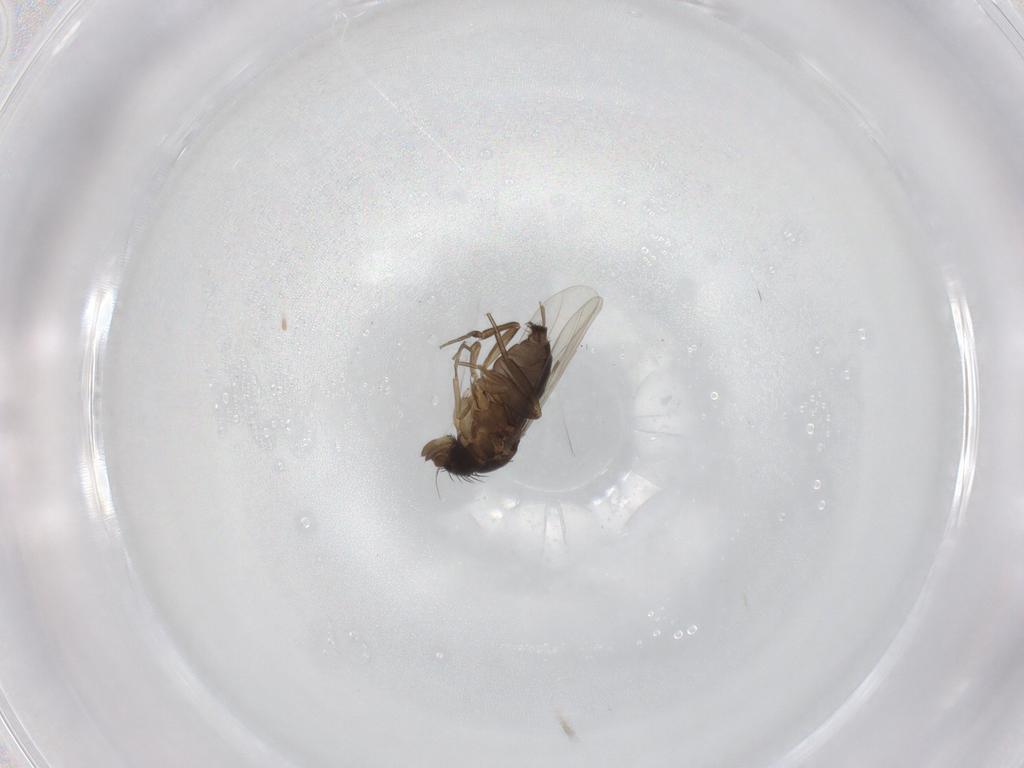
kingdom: Animalia
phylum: Arthropoda
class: Insecta
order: Diptera
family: Phoridae
